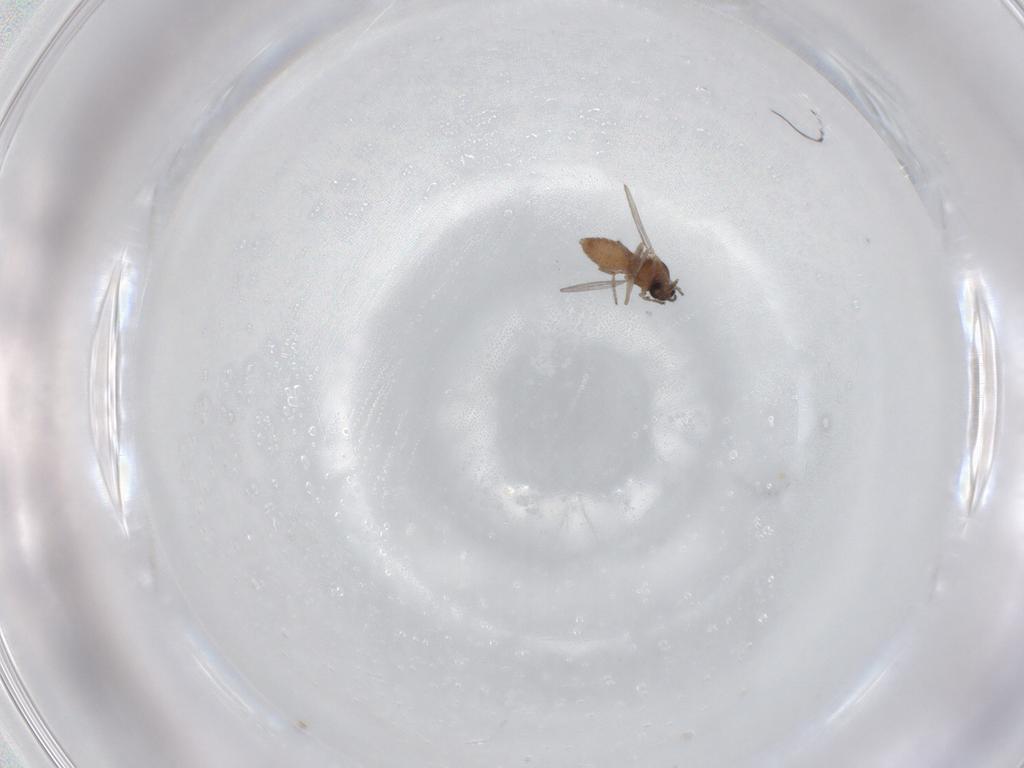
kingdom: Animalia
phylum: Arthropoda
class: Insecta
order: Diptera
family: Ceratopogonidae
